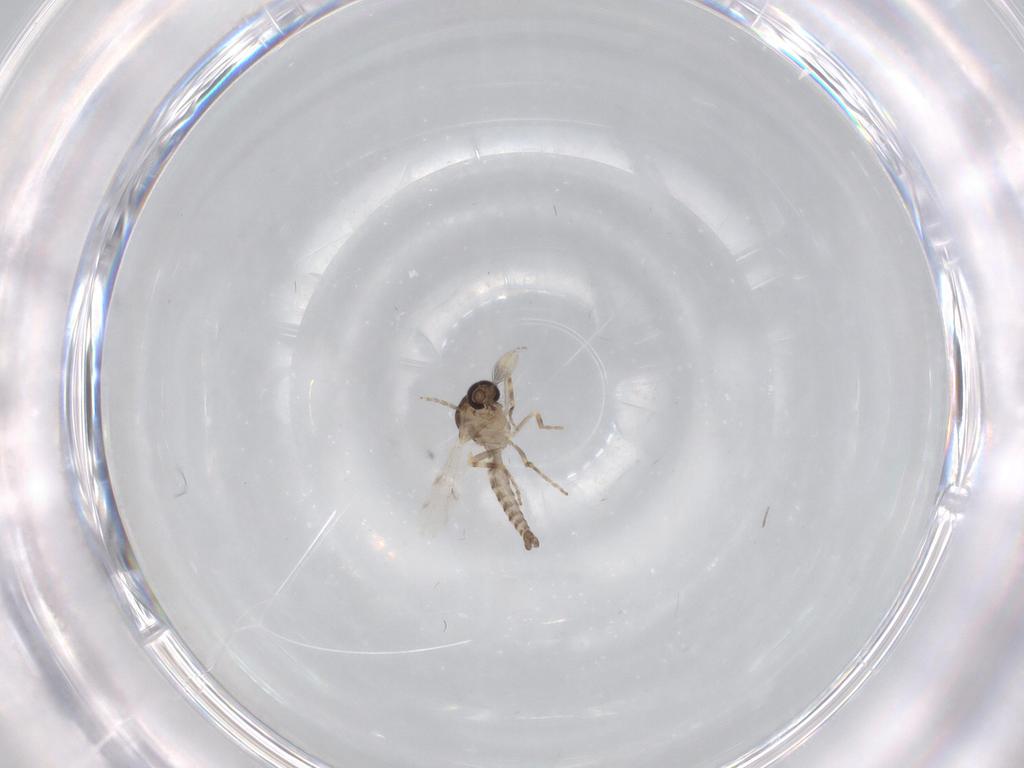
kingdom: Animalia
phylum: Arthropoda
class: Insecta
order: Diptera
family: Ceratopogonidae
